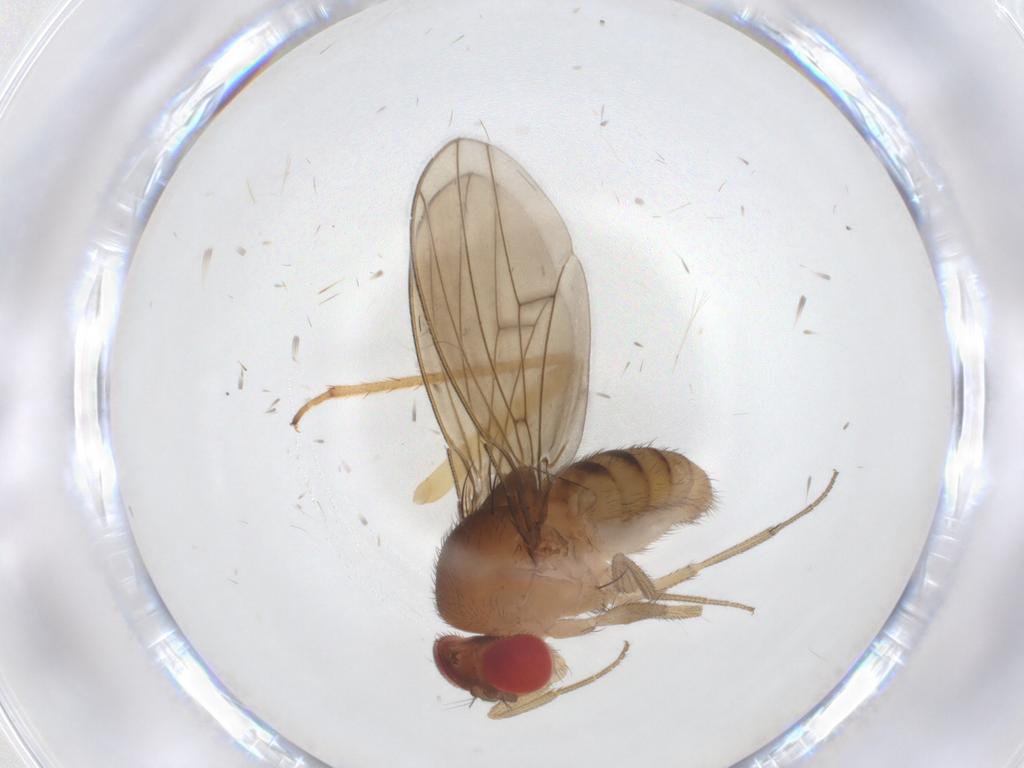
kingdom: Animalia
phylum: Arthropoda
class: Insecta
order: Diptera
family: Drosophilidae
